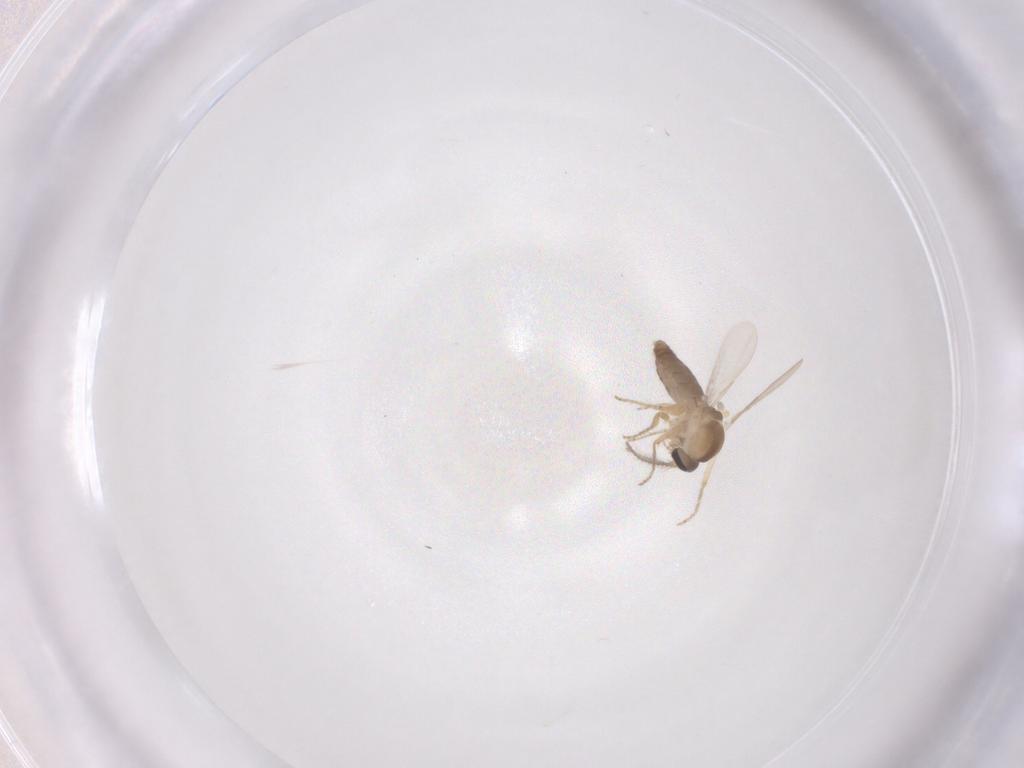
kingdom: Animalia
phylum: Arthropoda
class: Insecta
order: Diptera
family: Ceratopogonidae
